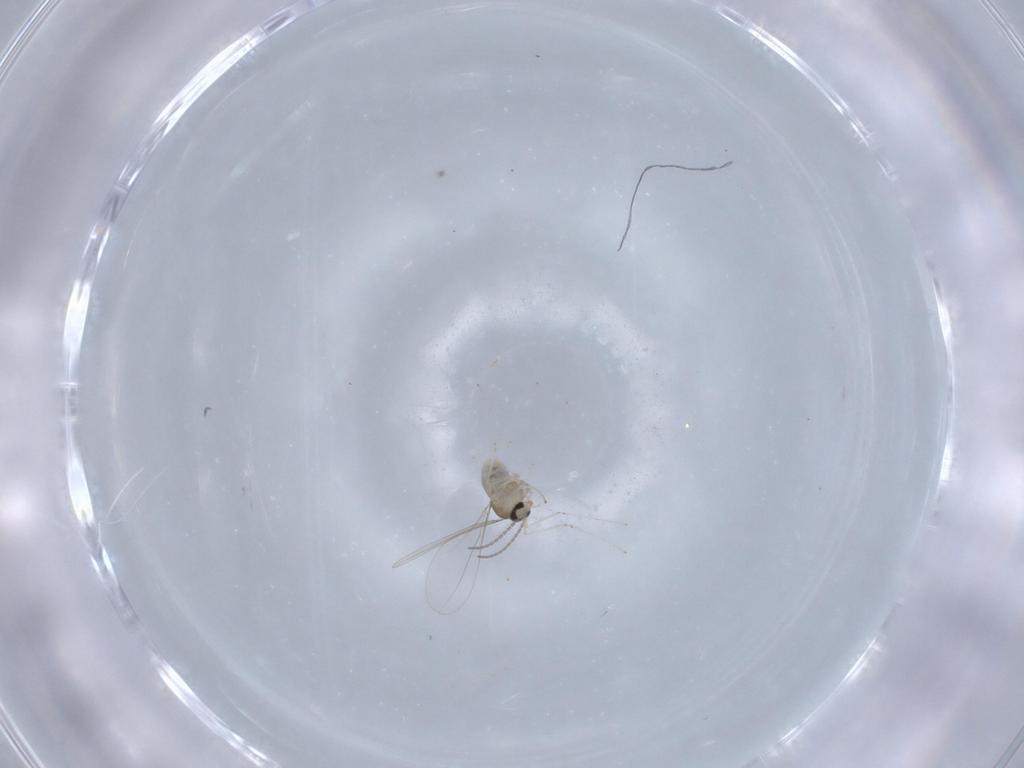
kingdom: Animalia
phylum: Arthropoda
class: Insecta
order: Diptera
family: Cecidomyiidae
